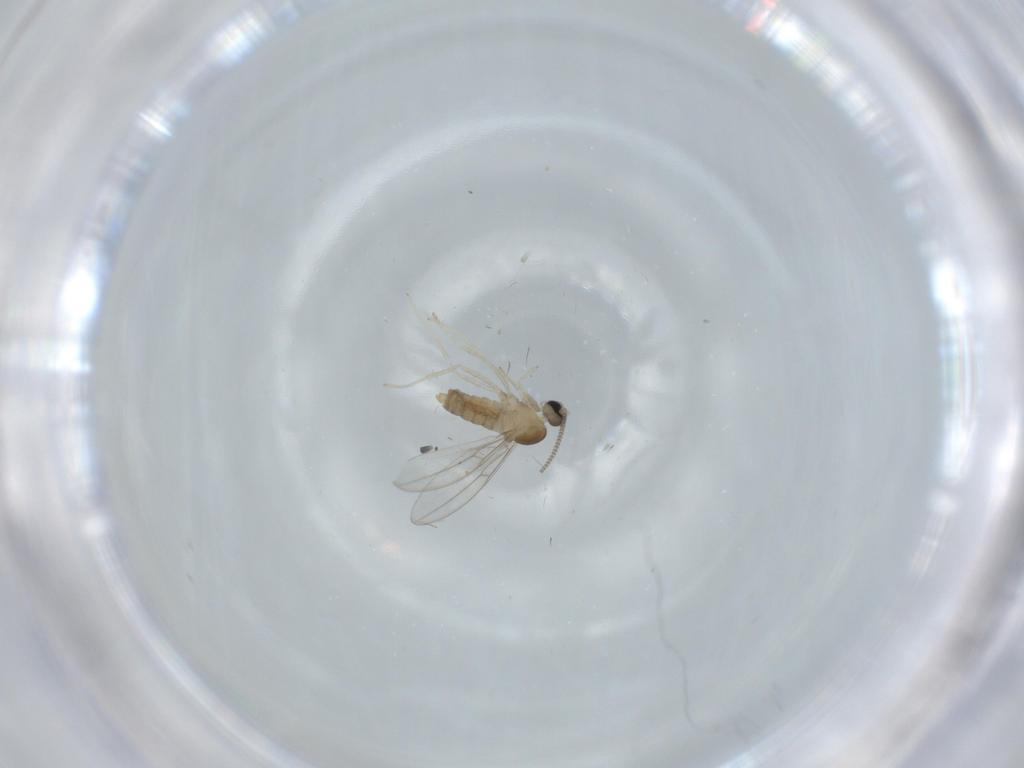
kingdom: Animalia
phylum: Arthropoda
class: Insecta
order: Diptera
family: Cecidomyiidae
